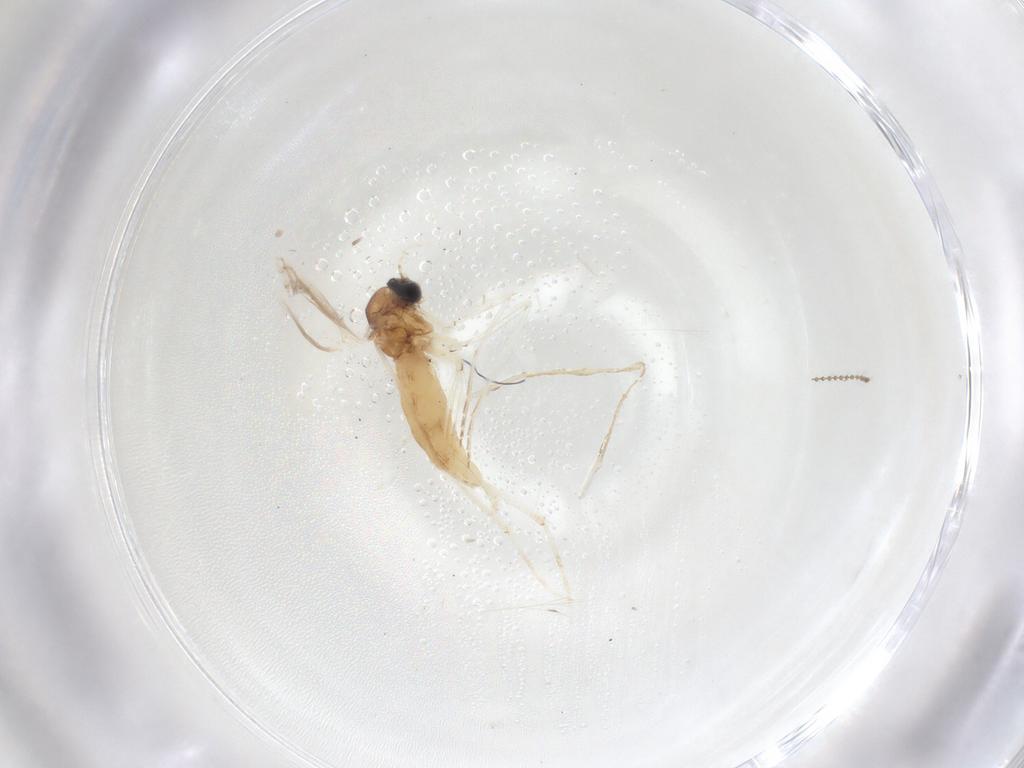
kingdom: Animalia
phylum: Arthropoda
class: Insecta
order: Diptera
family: Sciaridae
